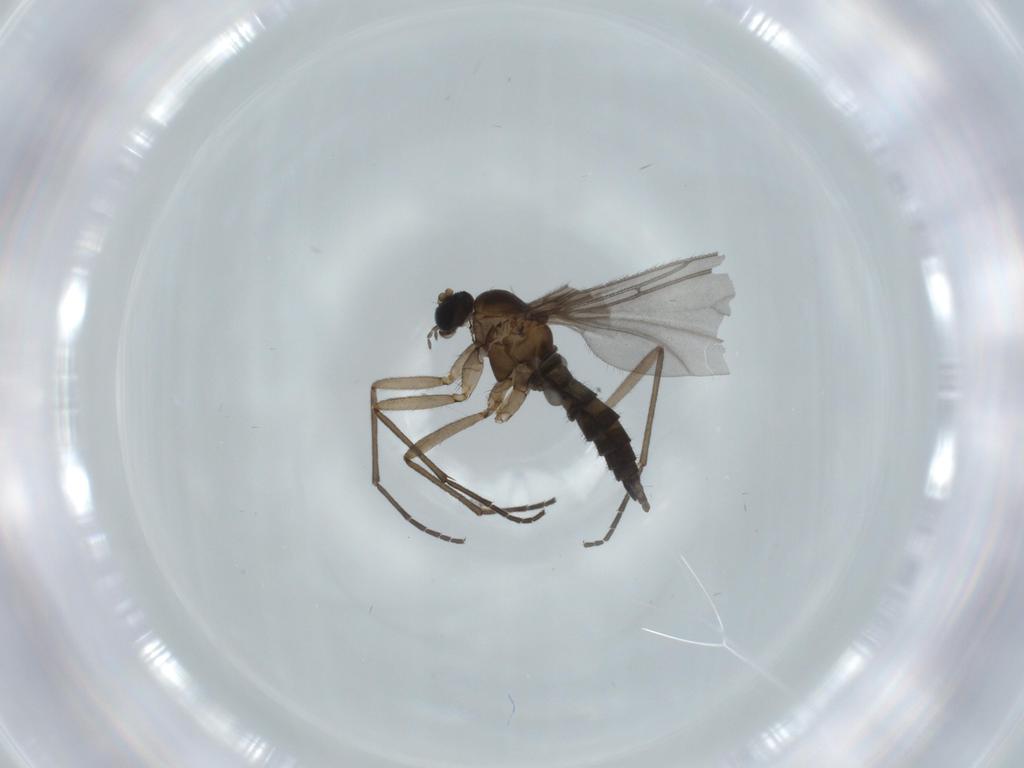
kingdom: Animalia
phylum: Arthropoda
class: Insecta
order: Diptera
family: Sciaridae
